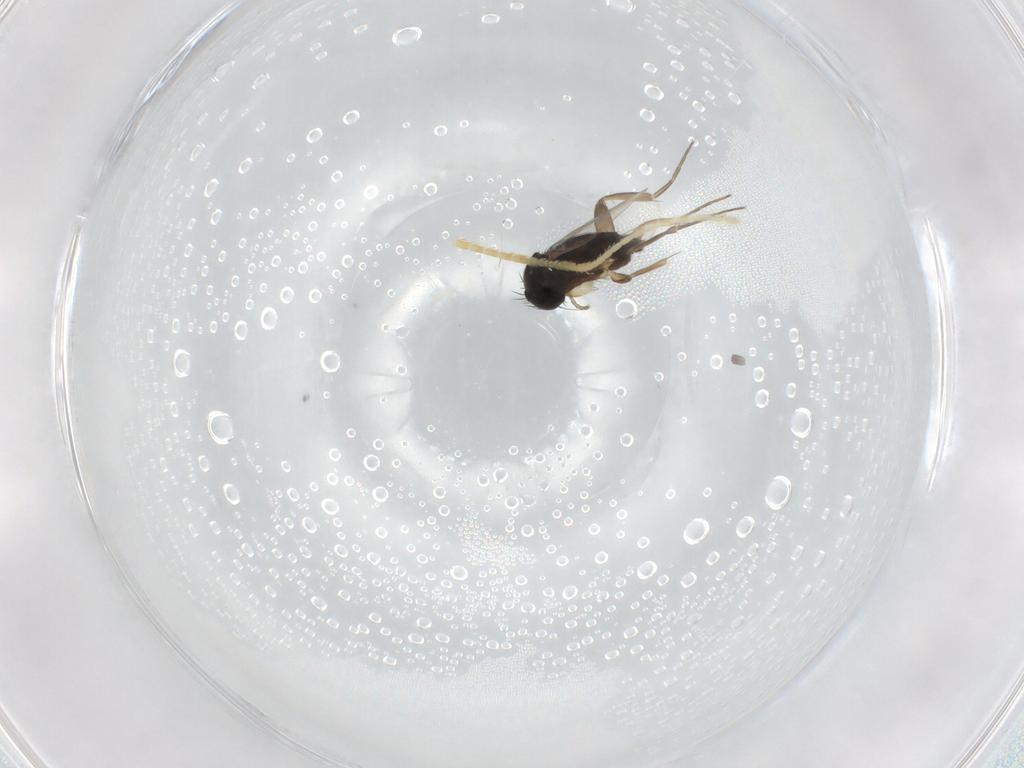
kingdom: Animalia
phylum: Arthropoda
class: Insecta
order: Diptera
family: Phoridae
